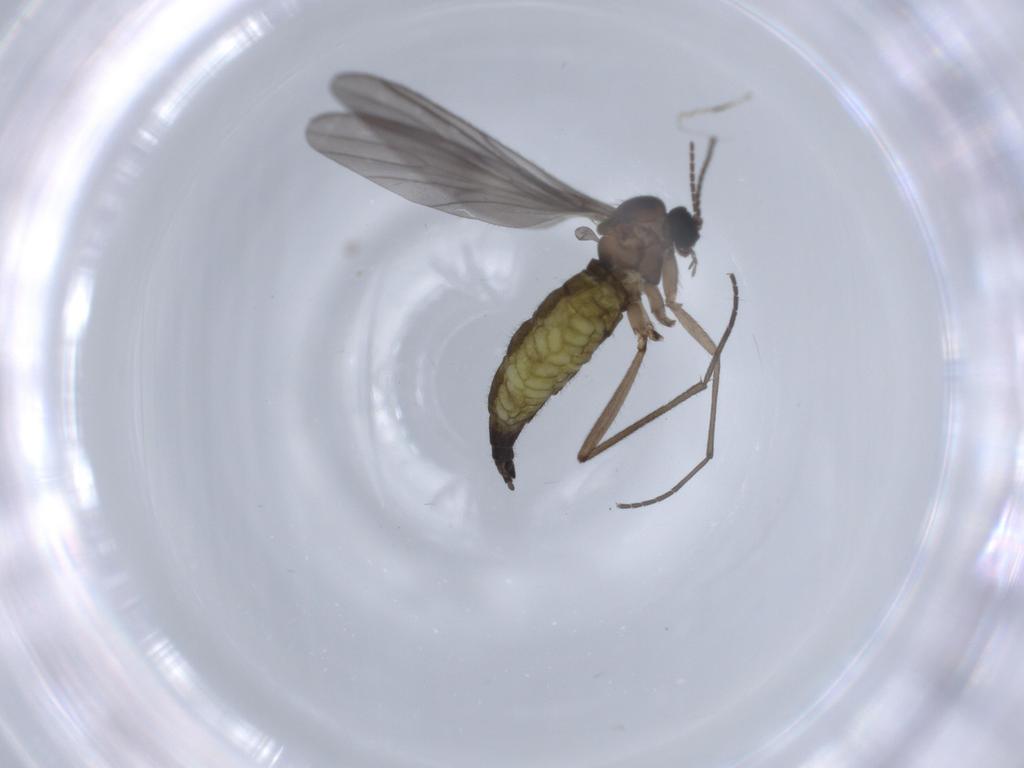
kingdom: Animalia
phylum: Arthropoda
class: Insecta
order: Diptera
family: Sciaridae
